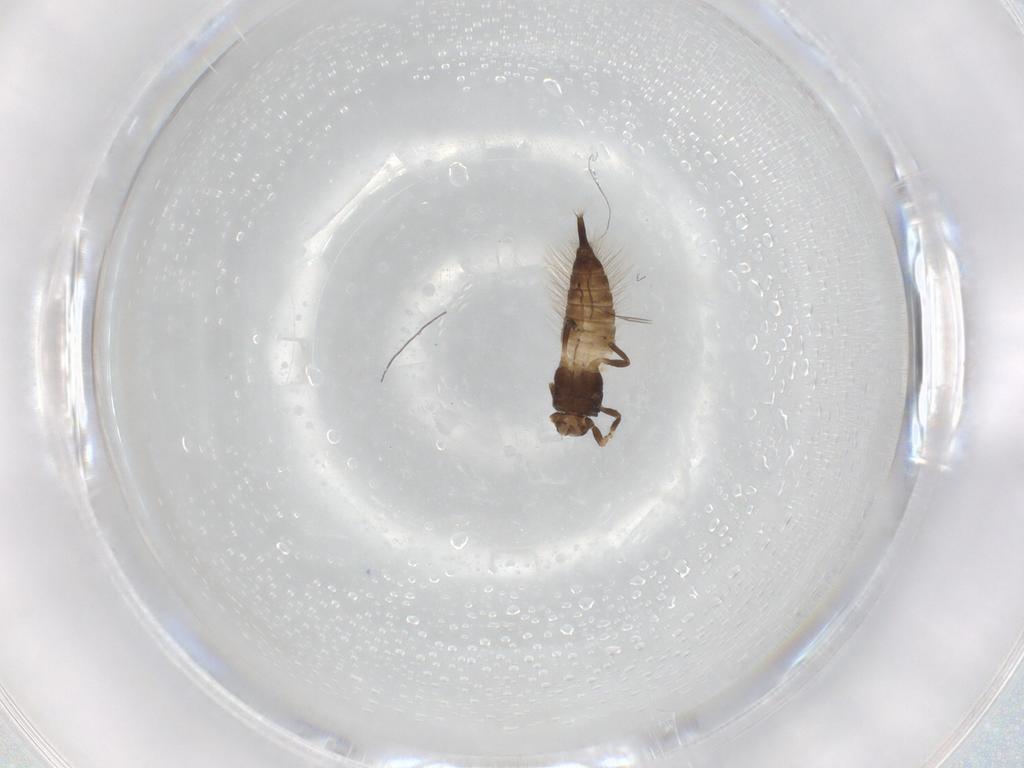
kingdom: Animalia
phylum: Arthropoda
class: Insecta
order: Thysanoptera
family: Phlaeothripidae
